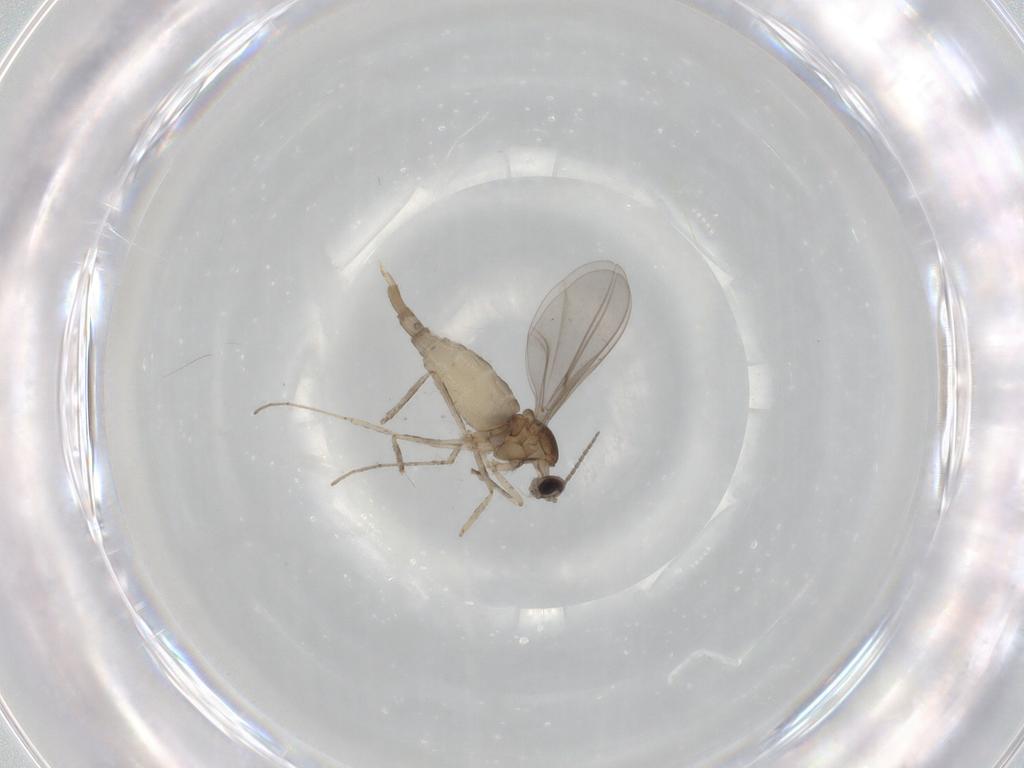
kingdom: Animalia
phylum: Arthropoda
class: Insecta
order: Diptera
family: Cecidomyiidae
